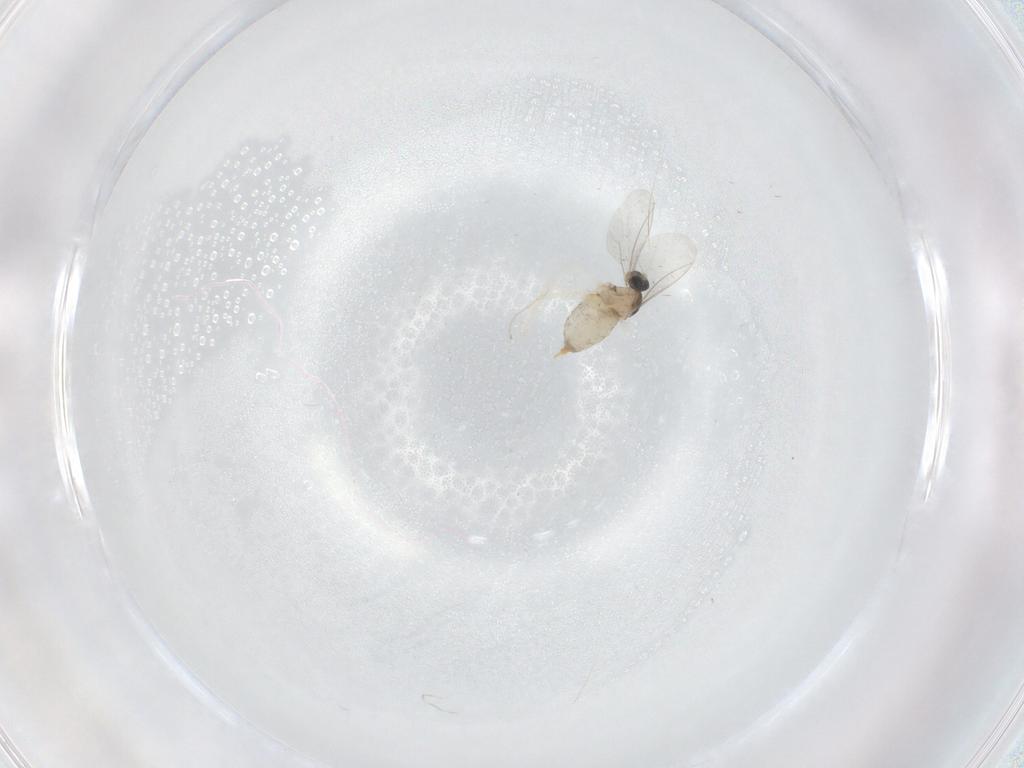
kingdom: Animalia
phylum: Arthropoda
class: Insecta
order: Diptera
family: Cecidomyiidae
